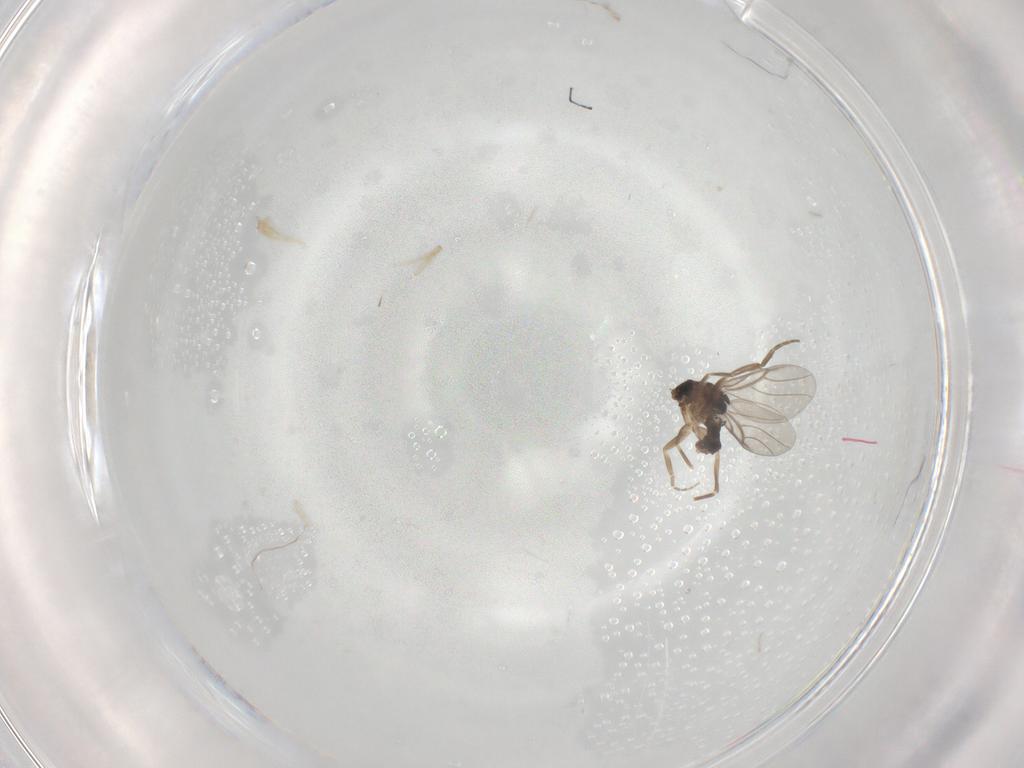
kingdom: Animalia
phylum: Arthropoda
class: Insecta
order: Diptera
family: Phoridae
